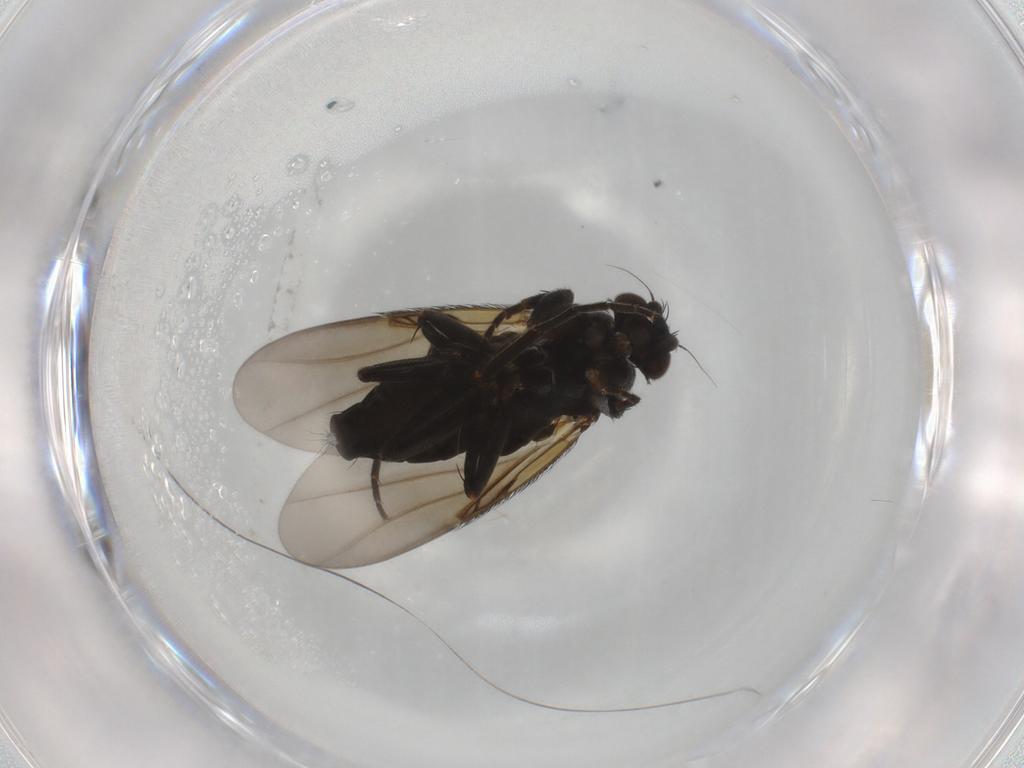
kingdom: Animalia
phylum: Arthropoda
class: Insecta
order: Diptera
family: Phoridae
